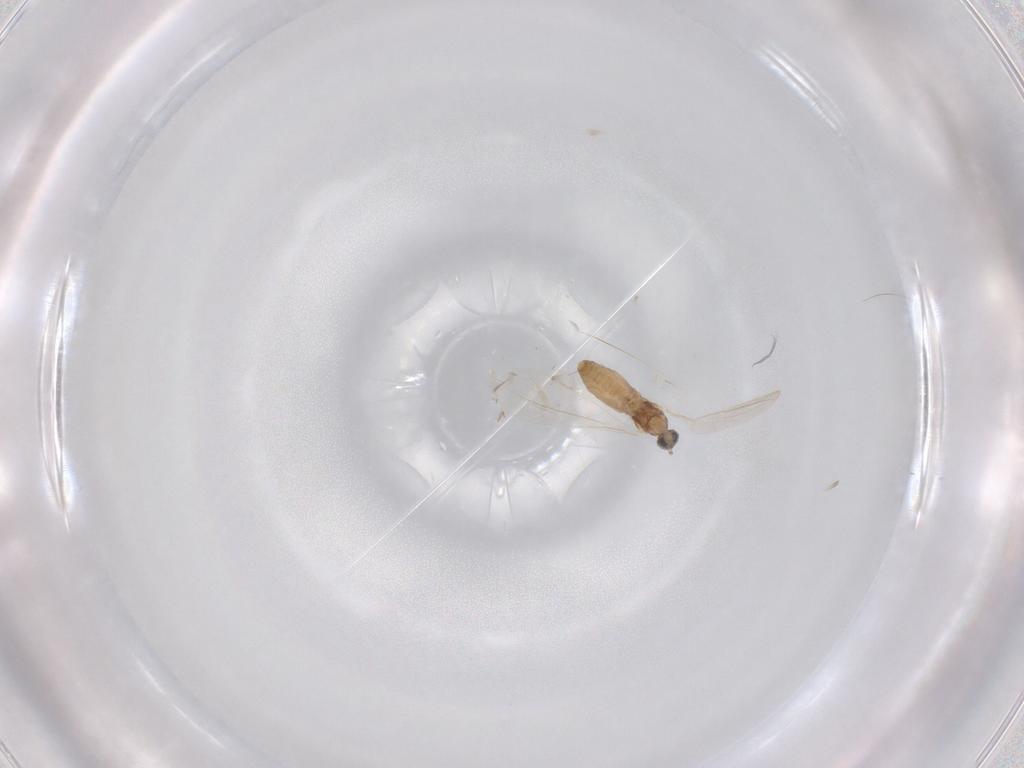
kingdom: Animalia
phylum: Arthropoda
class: Insecta
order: Diptera
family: Cecidomyiidae
